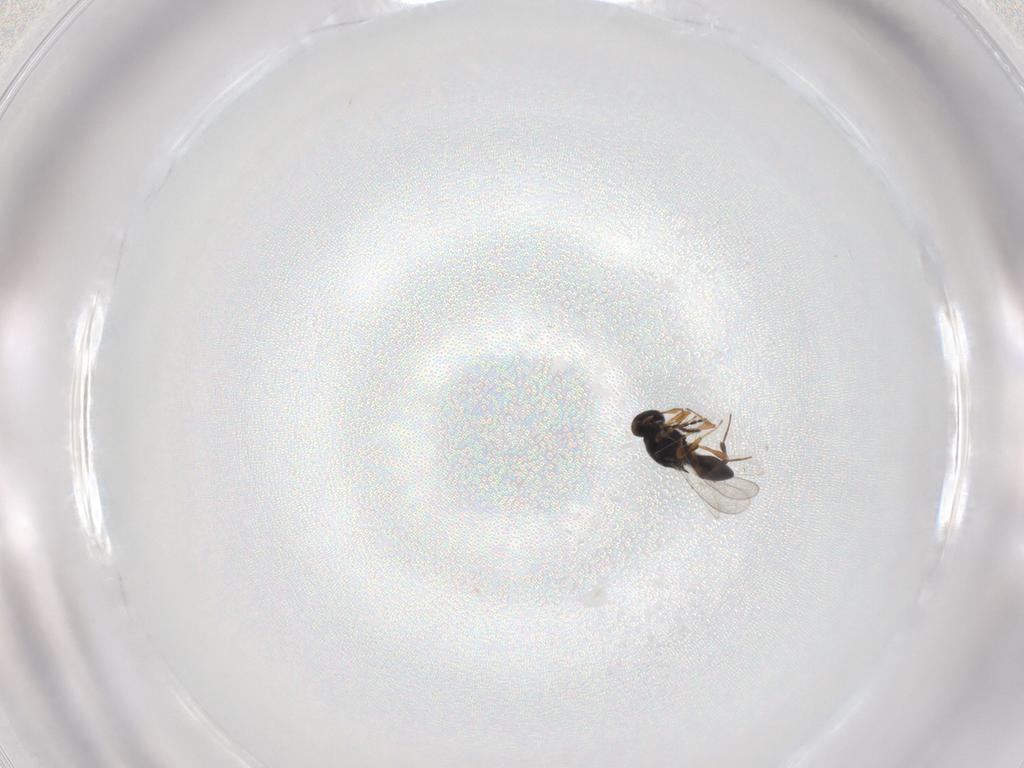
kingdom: Animalia
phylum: Arthropoda
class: Insecta
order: Hymenoptera
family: Platygastridae
